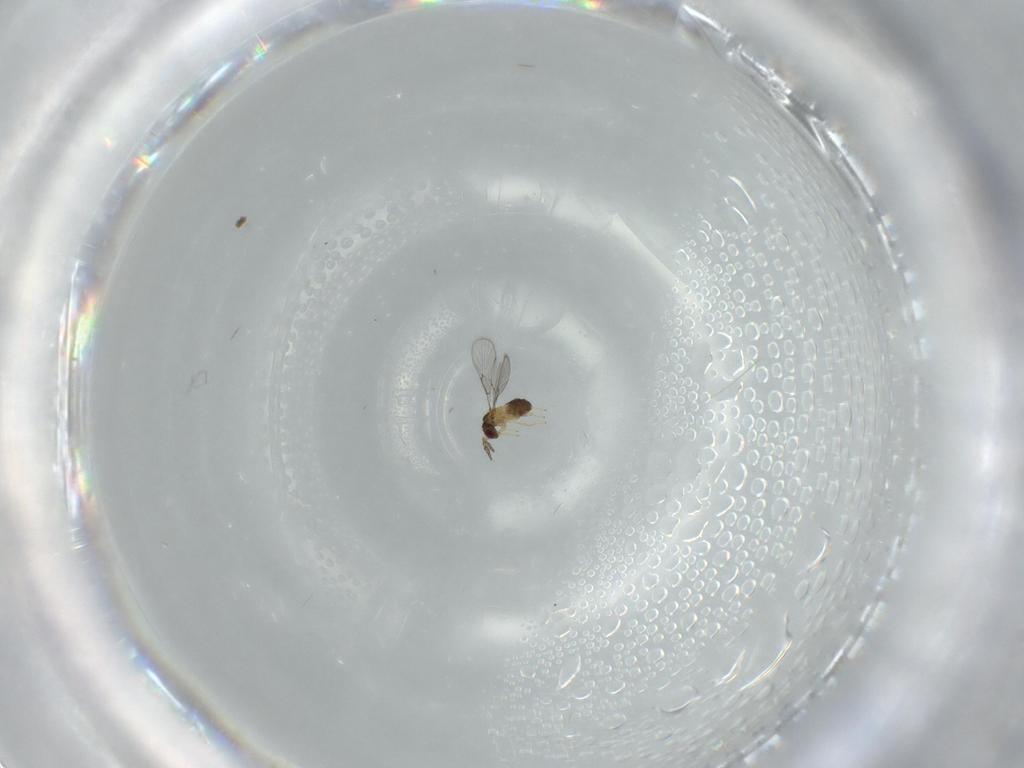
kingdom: Animalia
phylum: Arthropoda
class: Insecta
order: Hymenoptera
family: Trichogrammatidae
